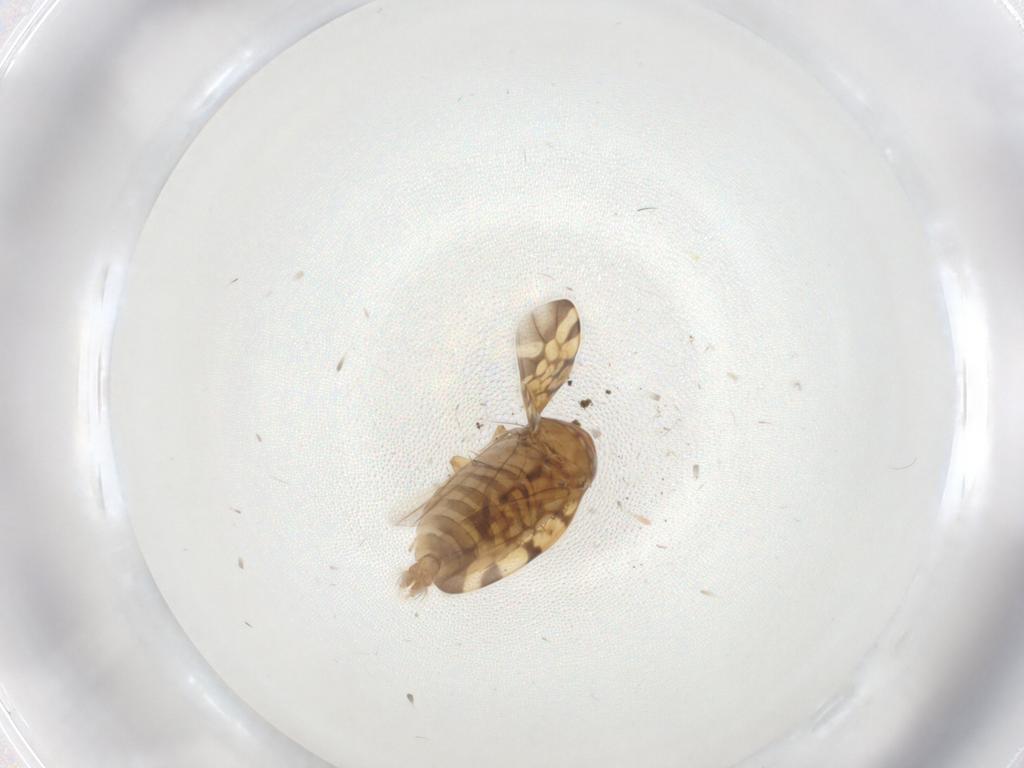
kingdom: Animalia
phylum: Arthropoda
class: Insecta
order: Hemiptera
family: Cicadellidae
